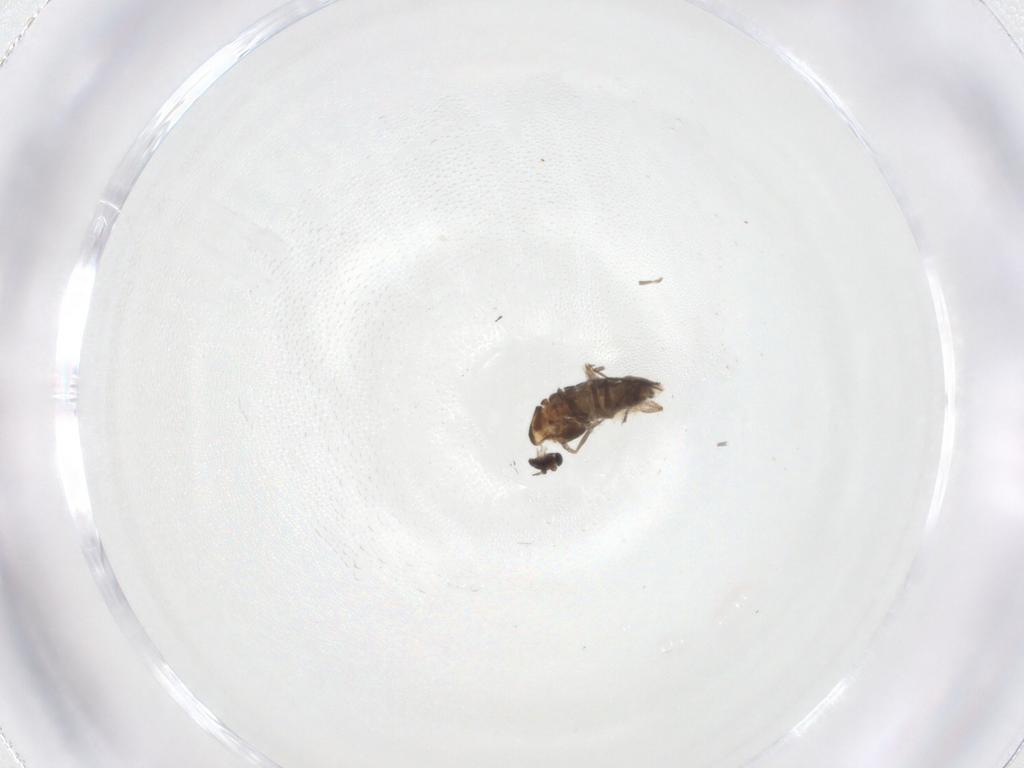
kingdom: Animalia
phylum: Arthropoda
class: Insecta
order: Diptera
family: Chironomidae
